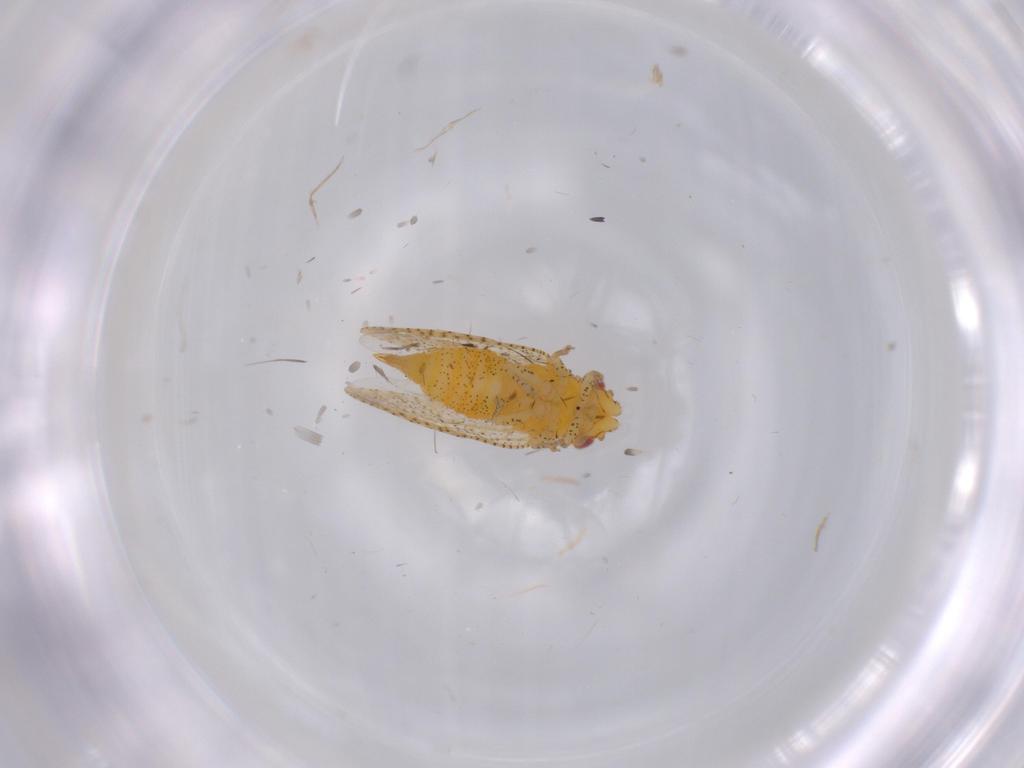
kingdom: Animalia
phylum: Arthropoda
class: Insecta
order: Hemiptera
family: Psyllidae
